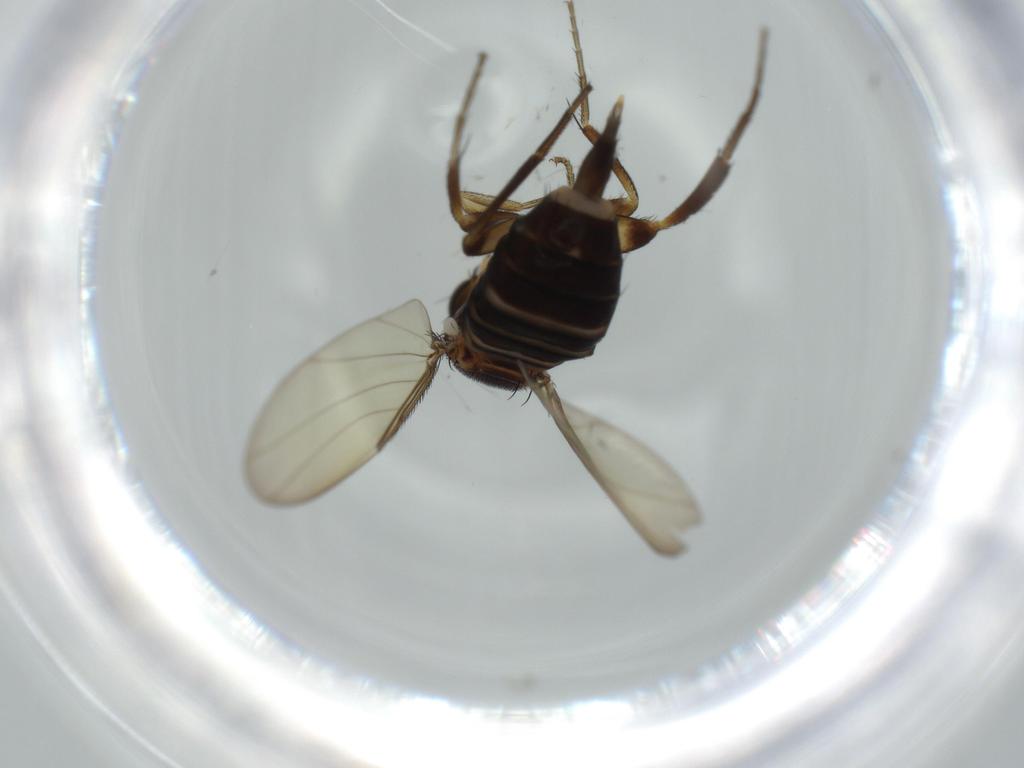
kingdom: Animalia
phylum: Arthropoda
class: Insecta
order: Diptera
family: Phoridae
